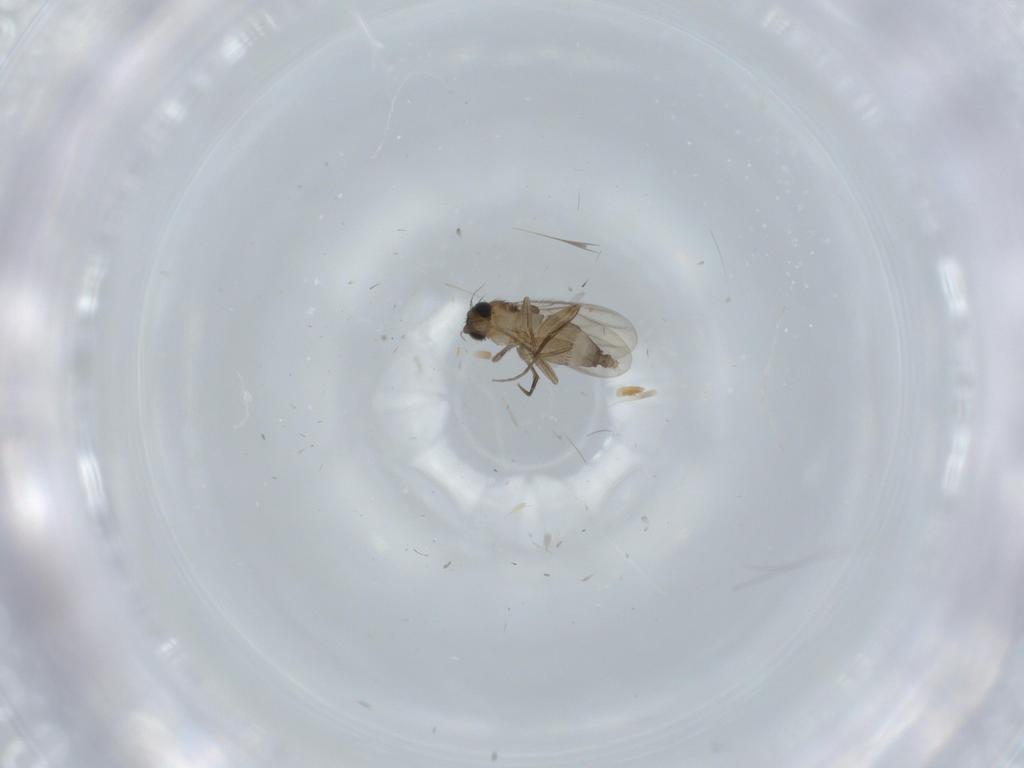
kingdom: Animalia
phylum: Arthropoda
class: Insecta
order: Diptera
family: Phoridae
